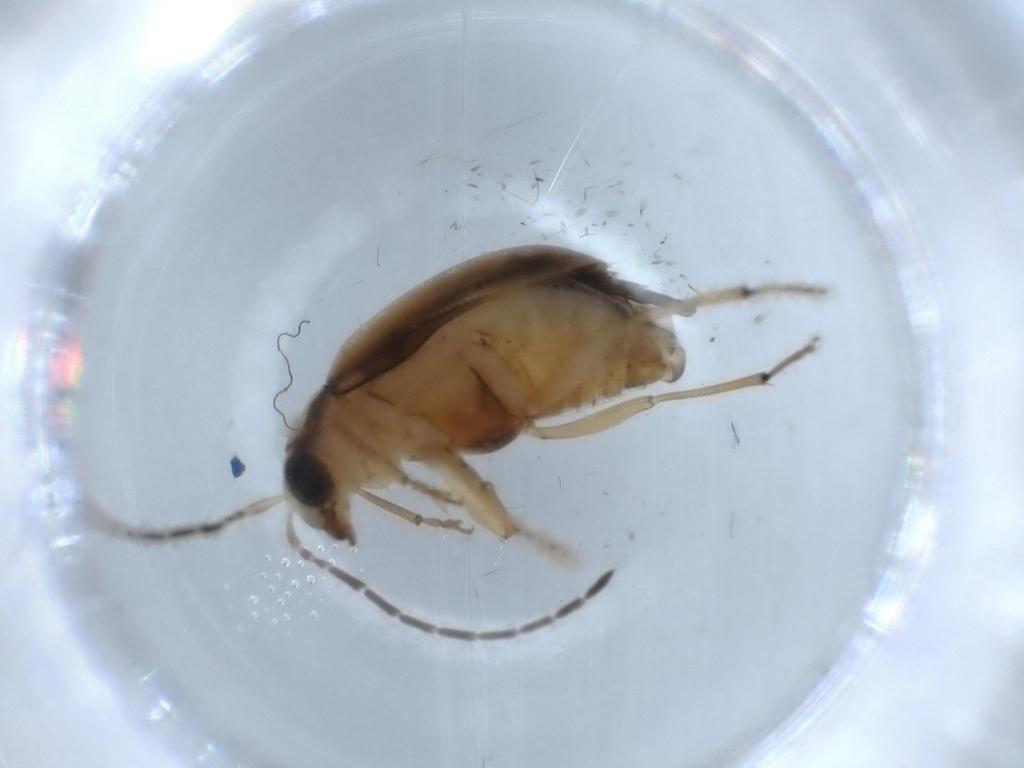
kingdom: Animalia
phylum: Arthropoda
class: Insecta
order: Coleoptera
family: Chrysomelidae
